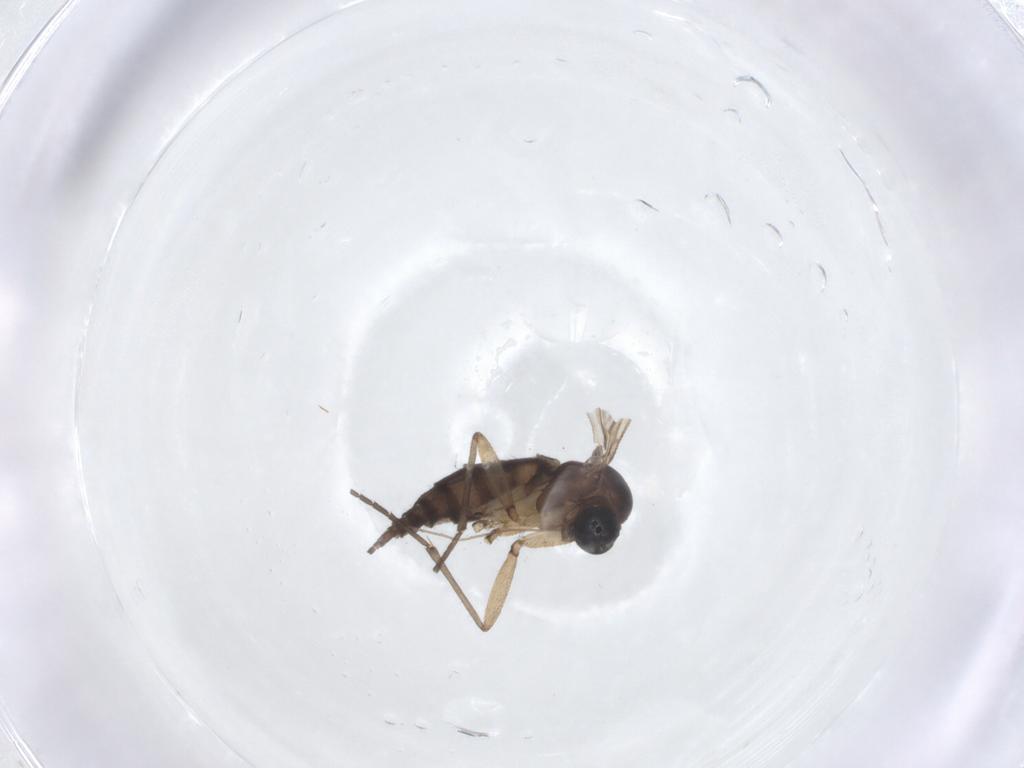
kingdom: Animalia
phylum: Arthropoda
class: Insecta
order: Diptera
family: Sciaridae
